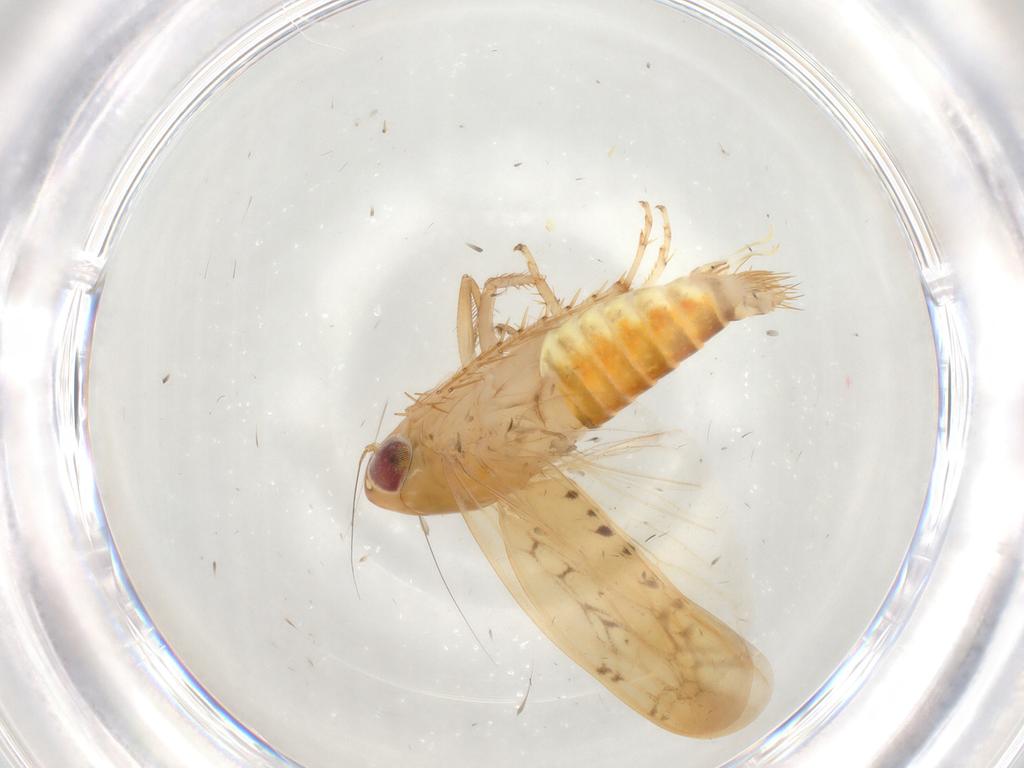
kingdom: Animalia
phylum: Arthropoda
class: Insecta
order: Hemiptera
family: Cicadellidae
